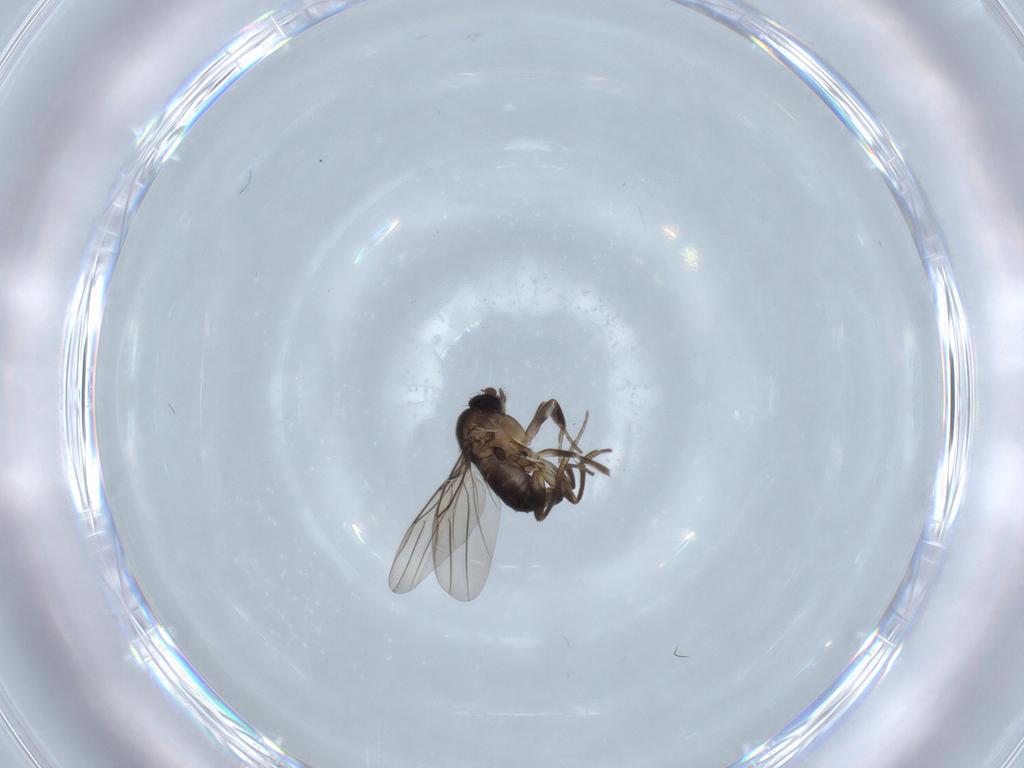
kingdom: Animalia
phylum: Arthropoda
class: Insecta
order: Diptera
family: Phoridae
